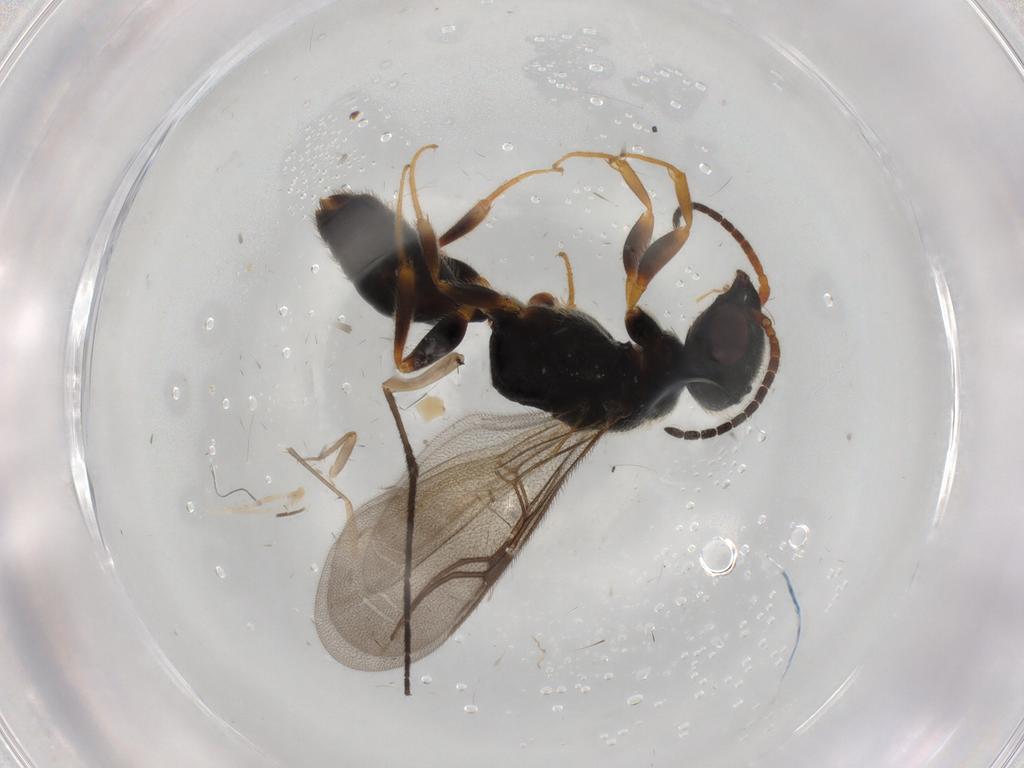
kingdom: Animalia
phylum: Arthropoda
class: Insecta
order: Hymenoptera
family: Bethylidae
